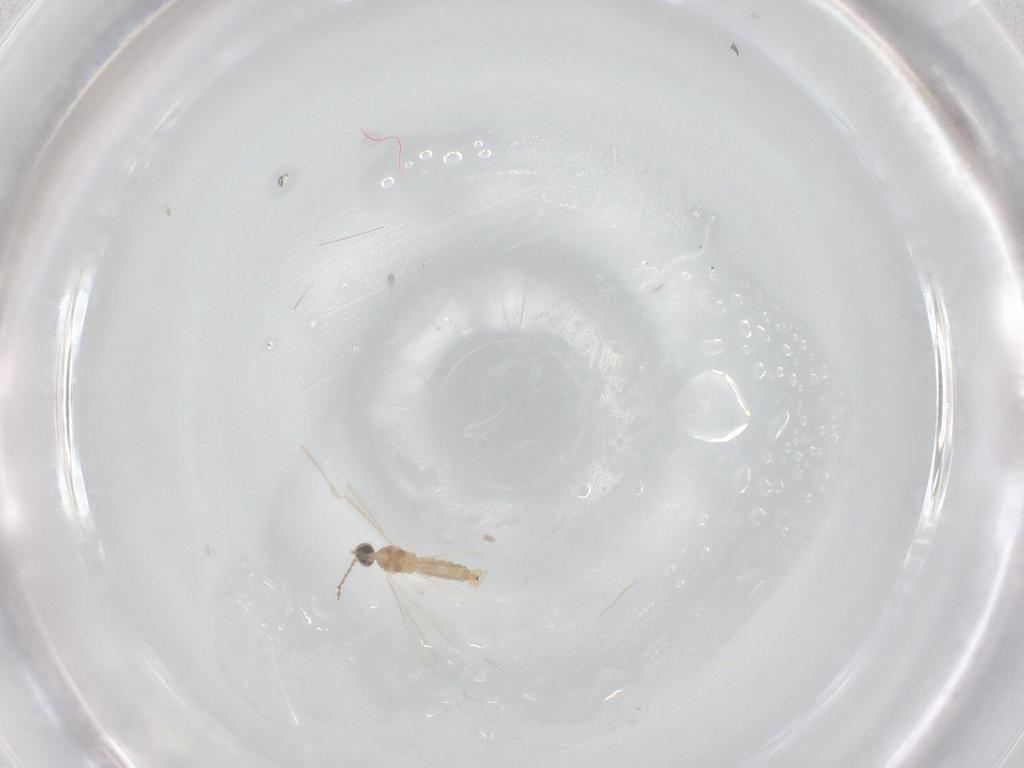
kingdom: Animalia
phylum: Arthropoda
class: Insecta
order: Diptera
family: Cecidomyiidae
